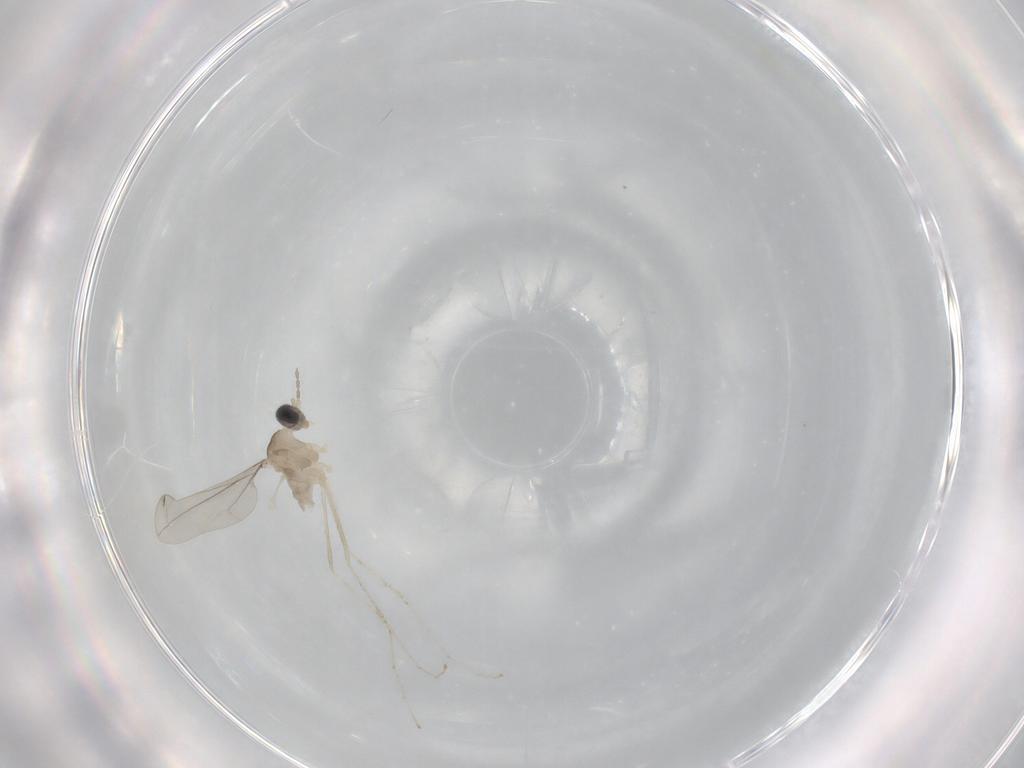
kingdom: Animalia
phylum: Arthropoda
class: Insecta
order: Diptera
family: Cecidomyiidae
